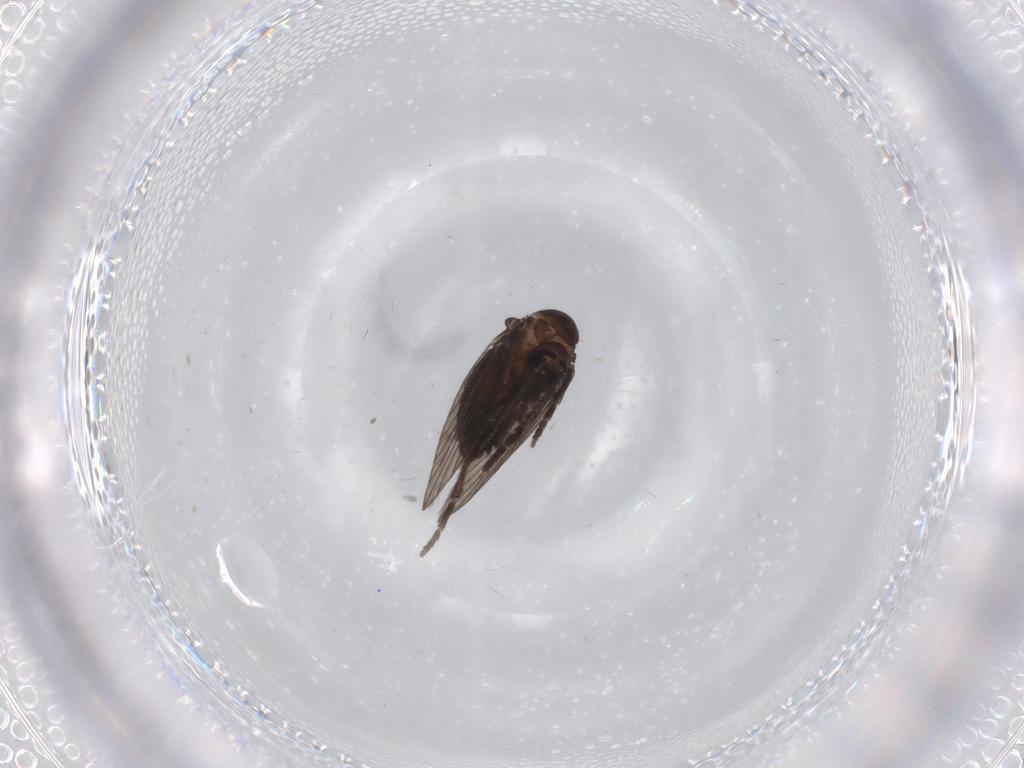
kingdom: Animalia
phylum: Arthropoda
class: Insecta
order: Diptera
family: Psychodidae
